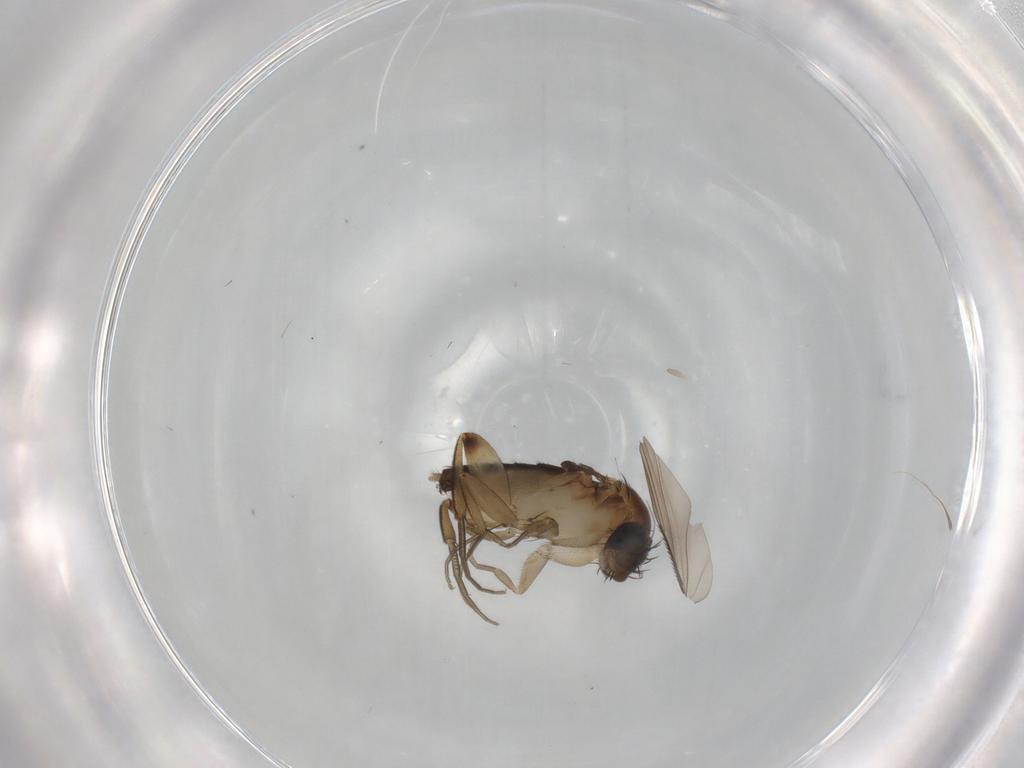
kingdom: Animalia
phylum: Arthropoda
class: Insecta
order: Diptera
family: Phoridae
